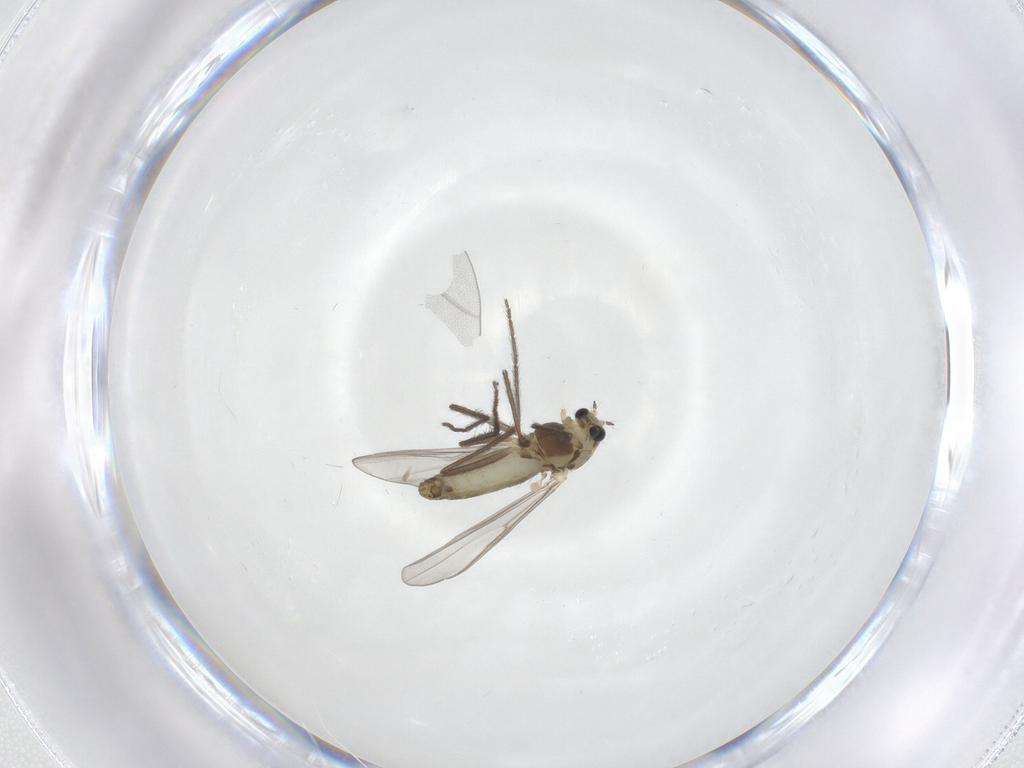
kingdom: Animalia
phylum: Arthropoda
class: Insecta
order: Diptera
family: Chironomidae
